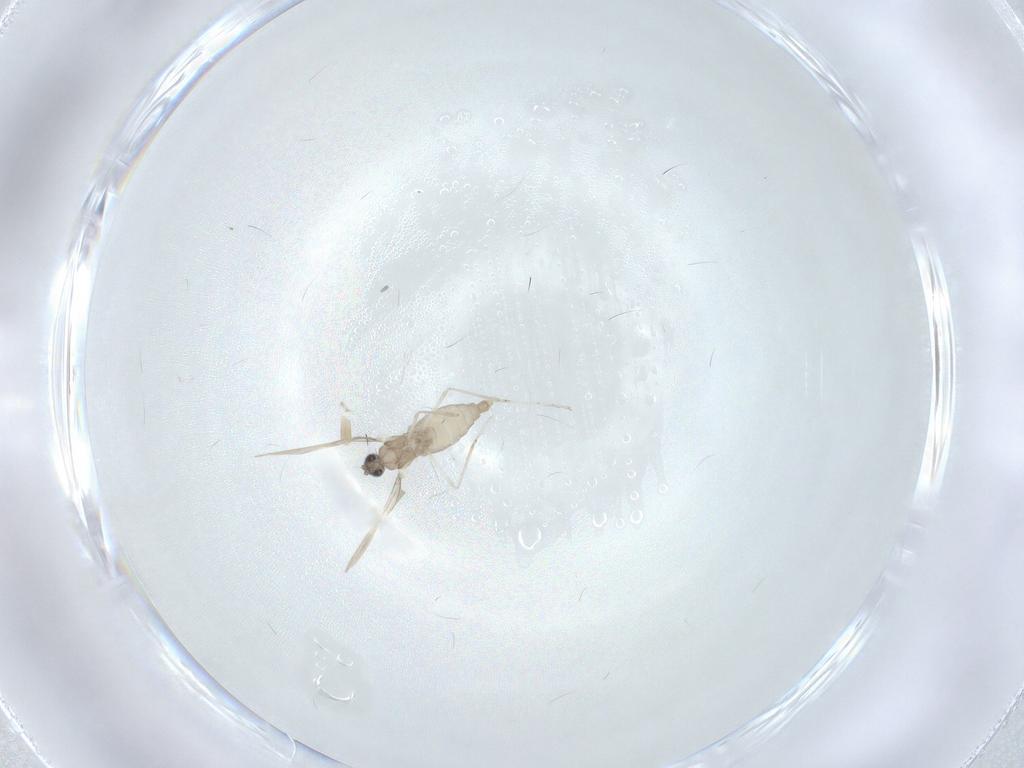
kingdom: Animalia
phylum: Arthropoda
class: Insecta
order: Diptera
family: Cecidomyiidae
